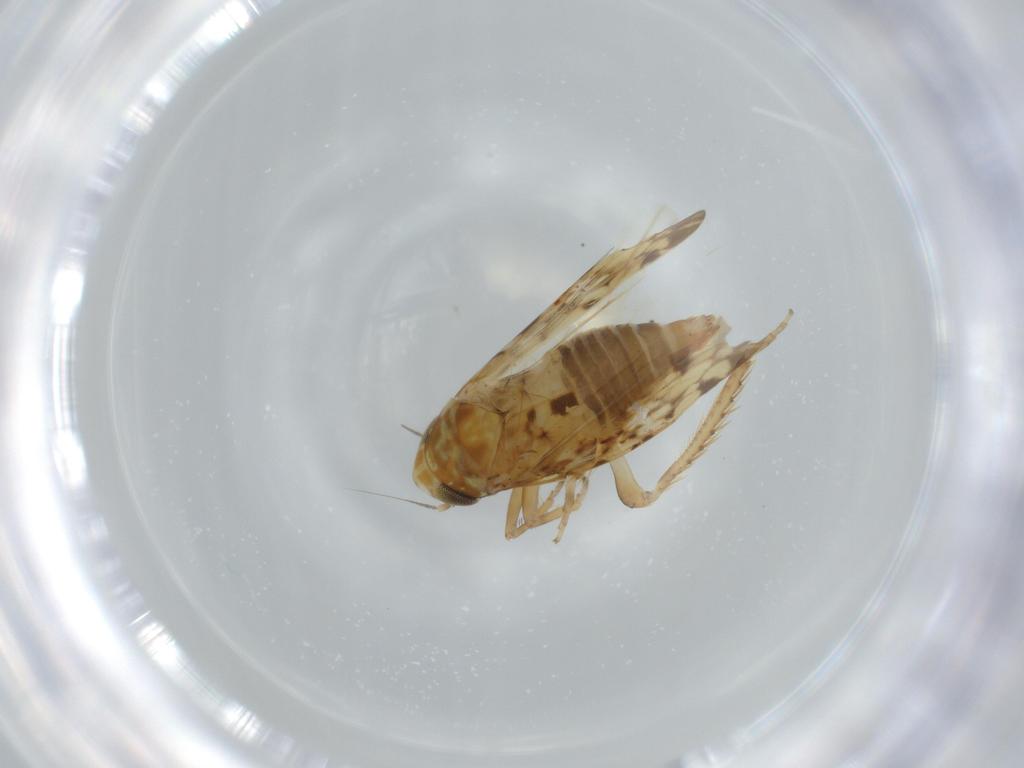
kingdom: Animalia
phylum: Arthropoda
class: Insecta
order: Hemiptera
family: Cicadellidae
